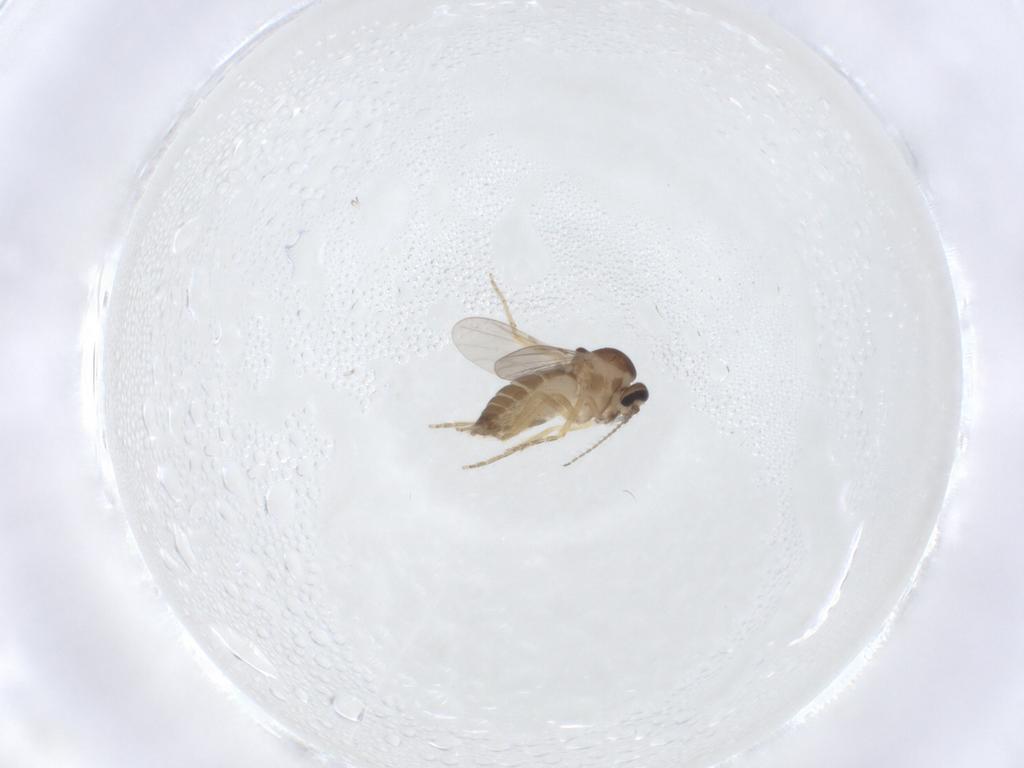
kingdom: Animalia
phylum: Arthropoda
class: Insecta
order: Diptera
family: Ceratopogonidae
